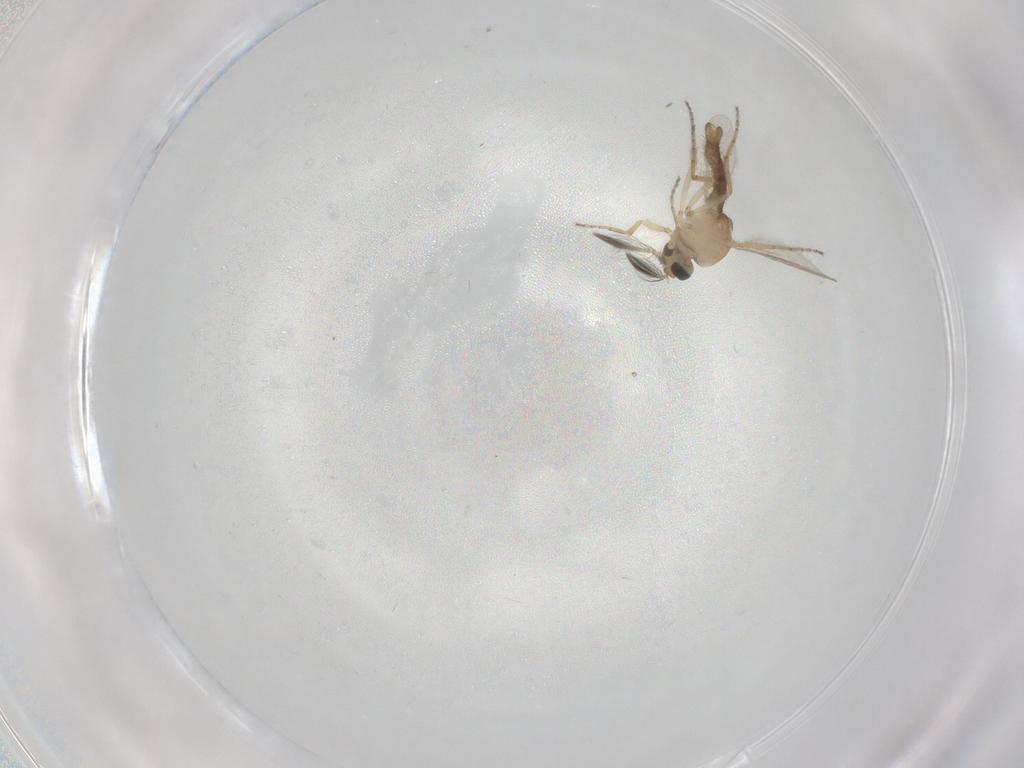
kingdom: Animalia
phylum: Arthropoda
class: Insecta
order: Diptera
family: Ceratopogonidae
